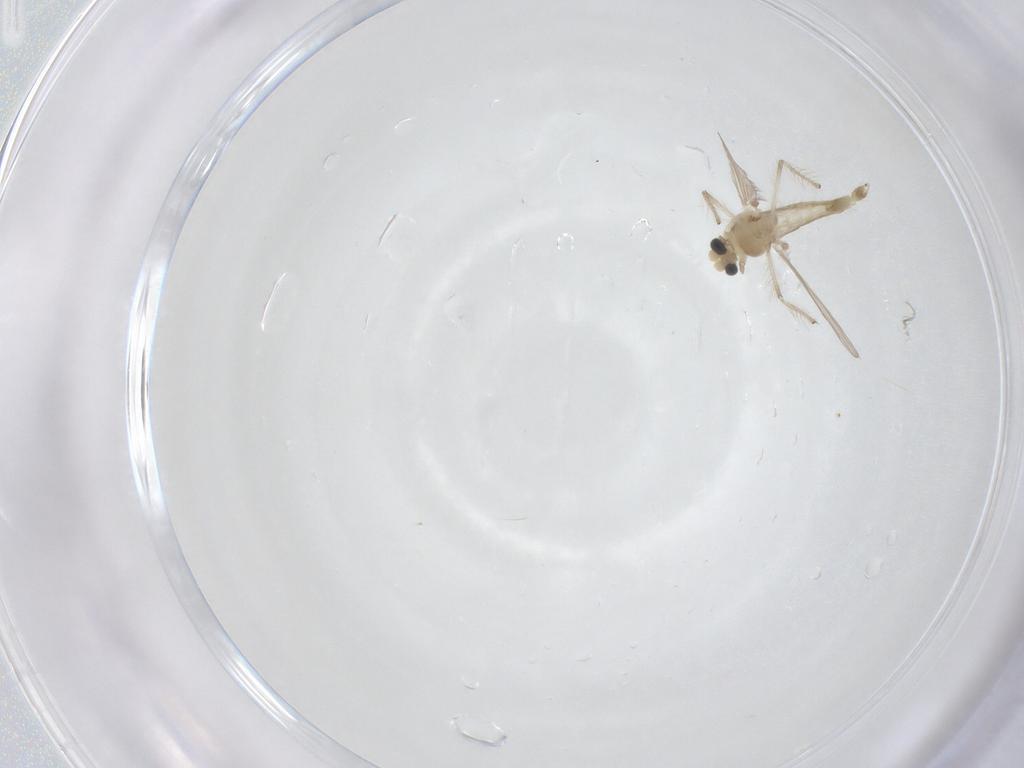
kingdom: Animalia
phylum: Arthropoda
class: Insecta
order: Diptera
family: Chironomidae
